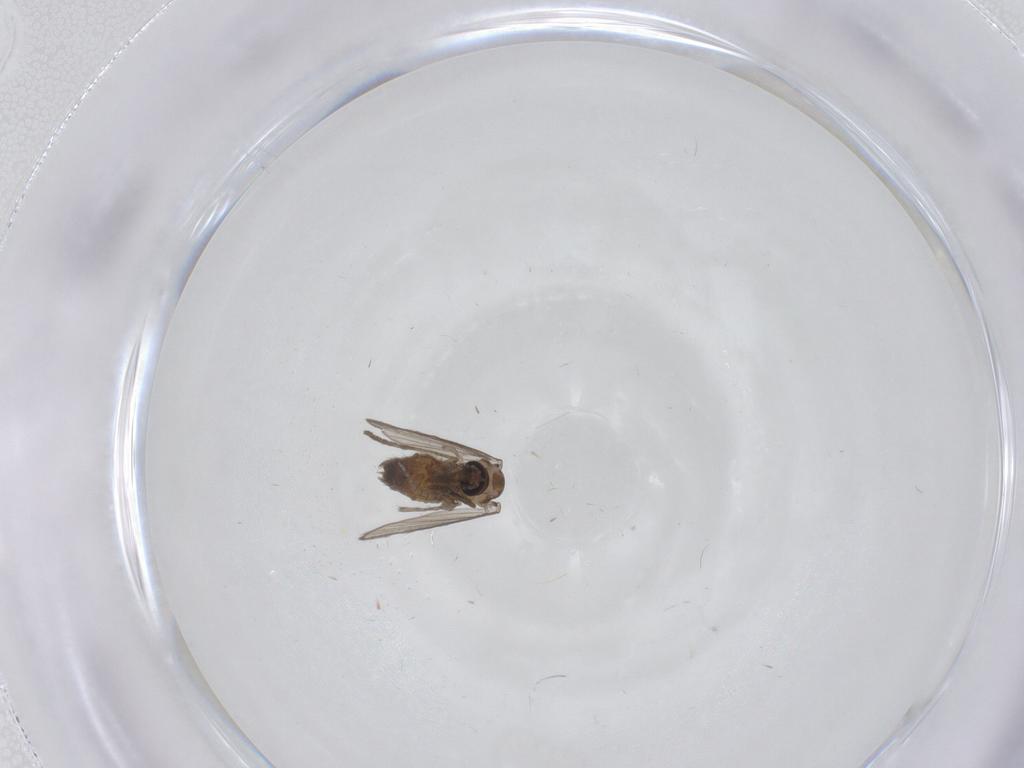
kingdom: Animalia
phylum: Arthropoda
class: Insecta
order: Diptera
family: Psychodidae
